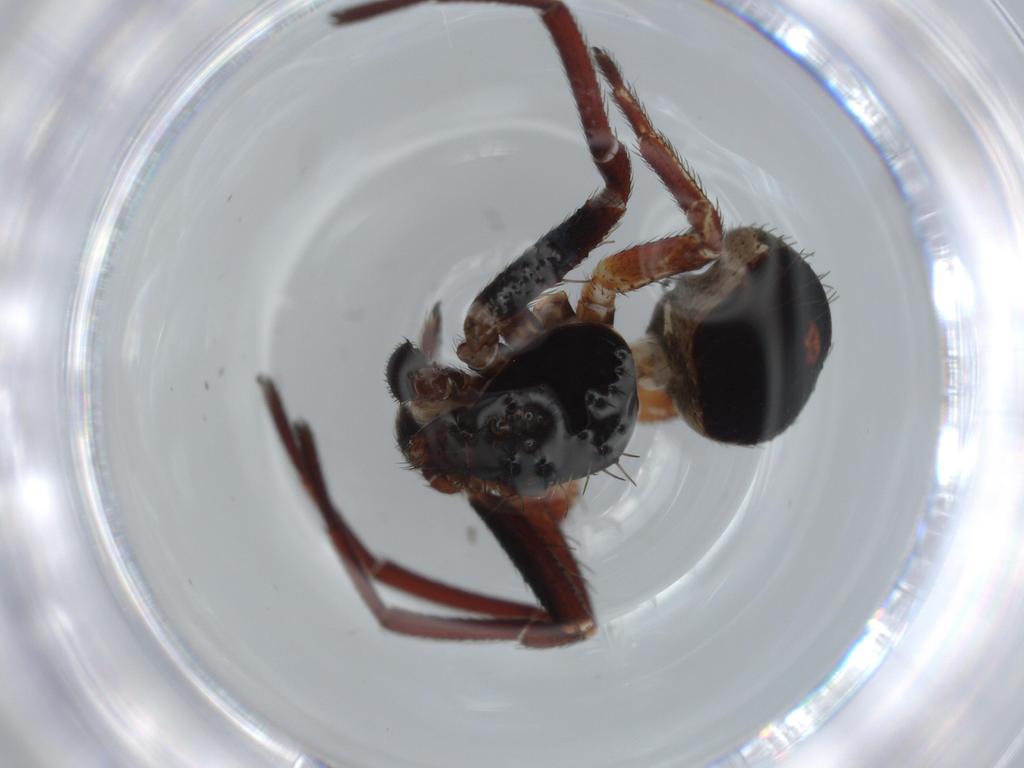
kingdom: Animalia
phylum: Arthropoda
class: Arachnida
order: Araneae
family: Thomisidae
